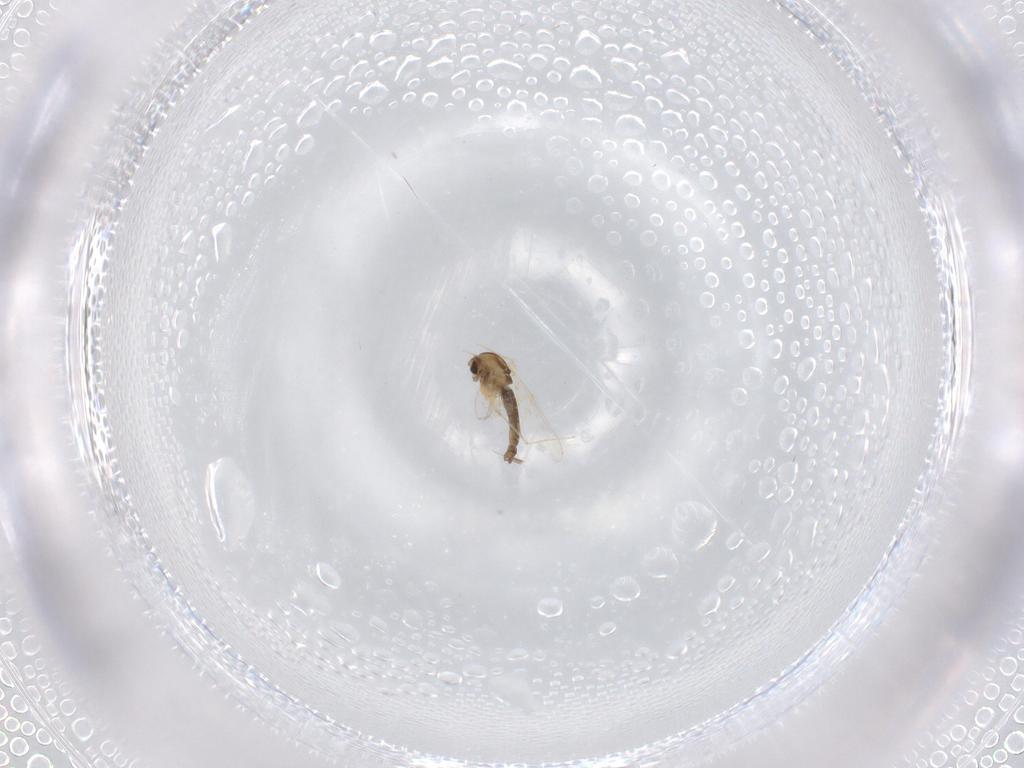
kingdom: Animalia
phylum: Arthropoda
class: Insecta
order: Diptera
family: Chironomidae
